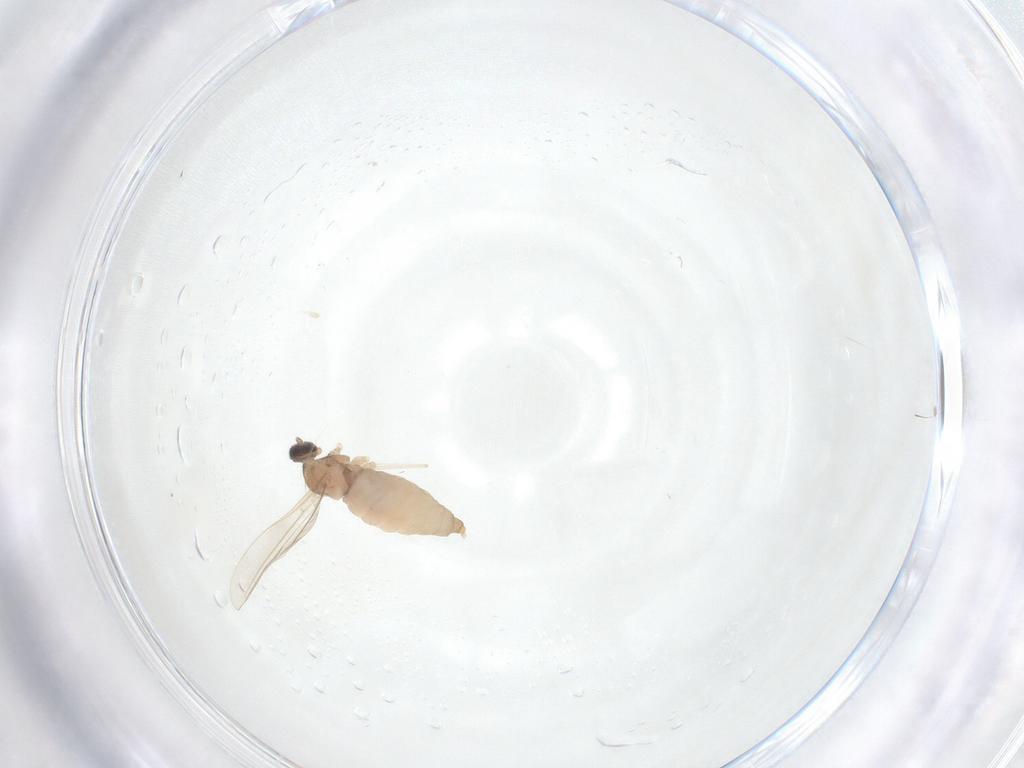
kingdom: Animalia
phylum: Arthropoda
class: Insecta
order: Diptera
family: Cecidomyiidae
